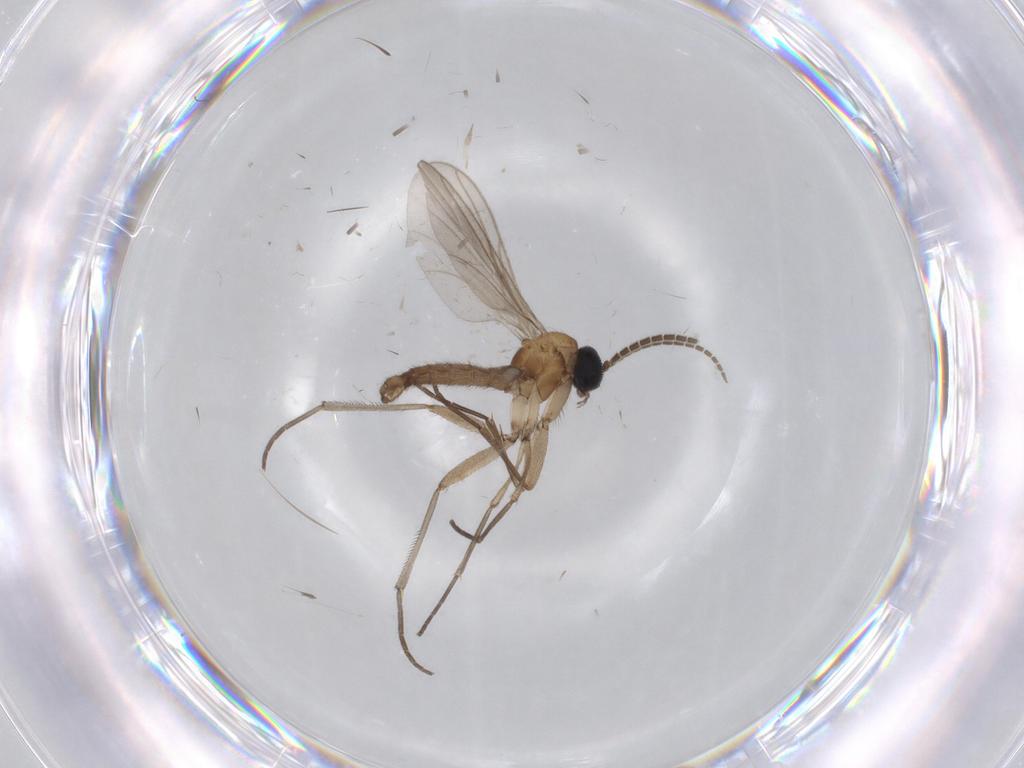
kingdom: Animalia
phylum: Arthropoda
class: Insecta
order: Diptera
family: Sciaridae
